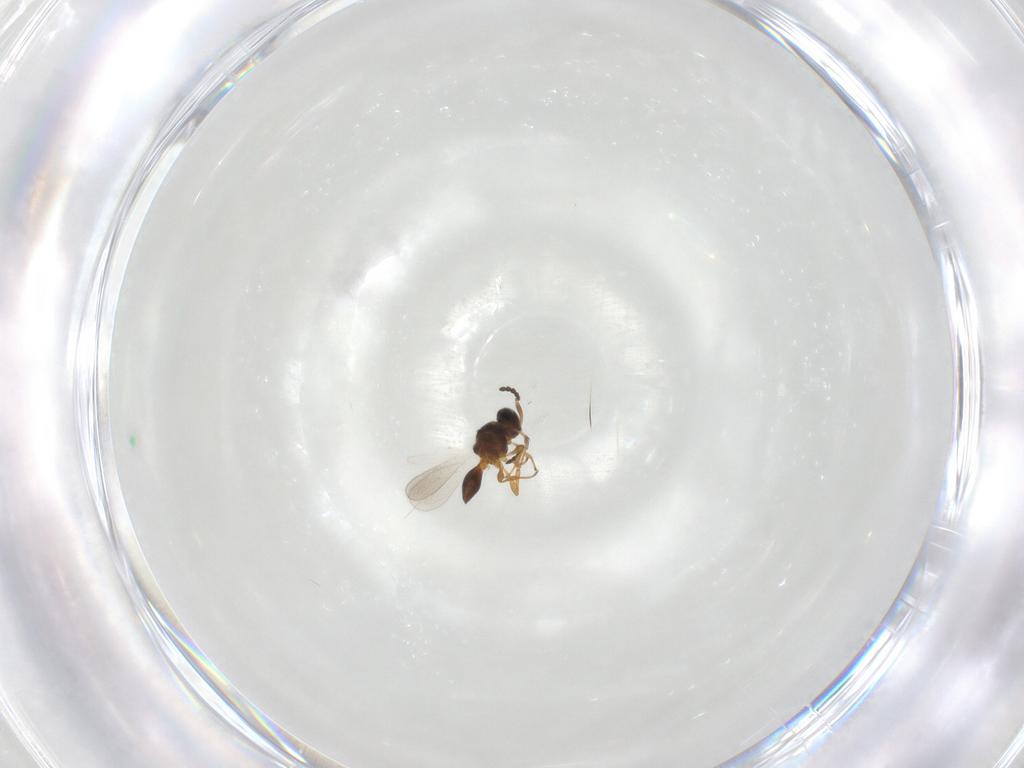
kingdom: Animalia
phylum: Arthropoda
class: Insecta
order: Hymenoptera
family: Platygastridae
